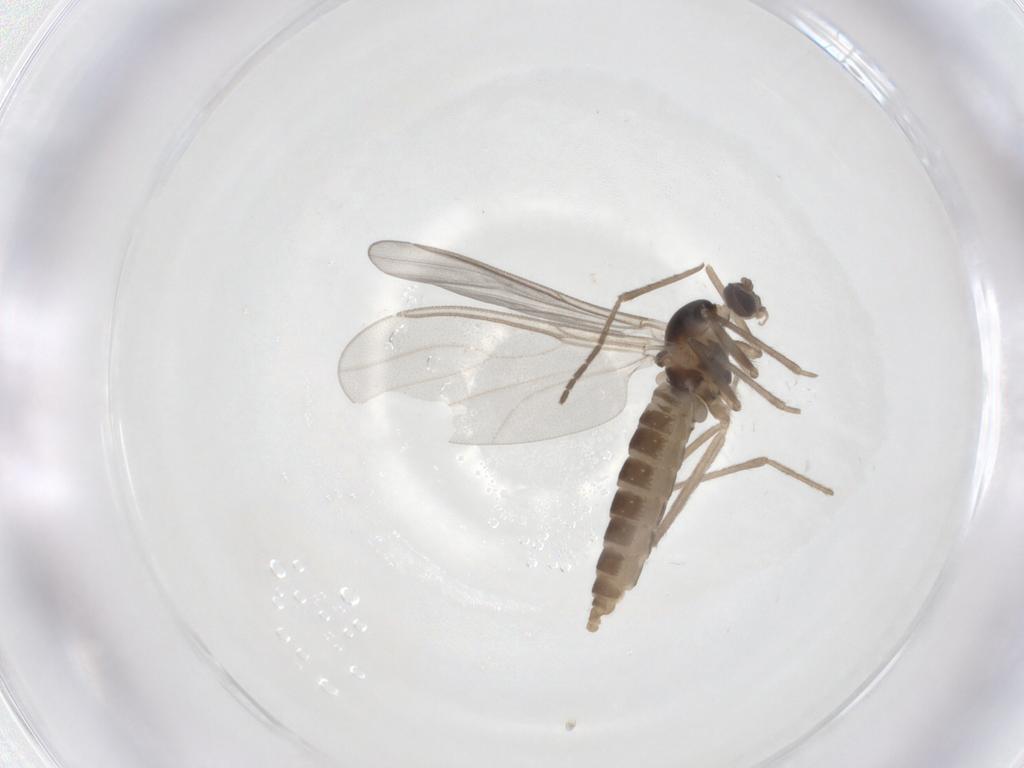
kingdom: Animalia
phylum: Arthropoda
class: Insecta
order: Diptera
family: Cecidomyiidae
